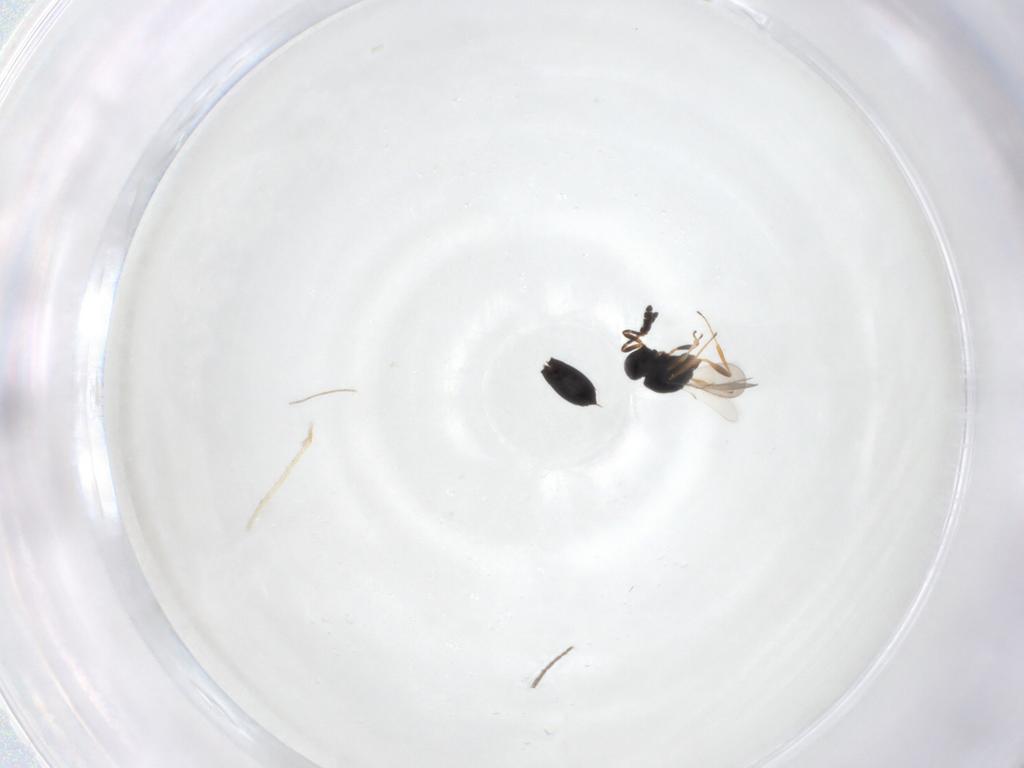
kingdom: Animalia
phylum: Arthropoda
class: Insecta
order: Hymenoptera
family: Ceraphronidae
